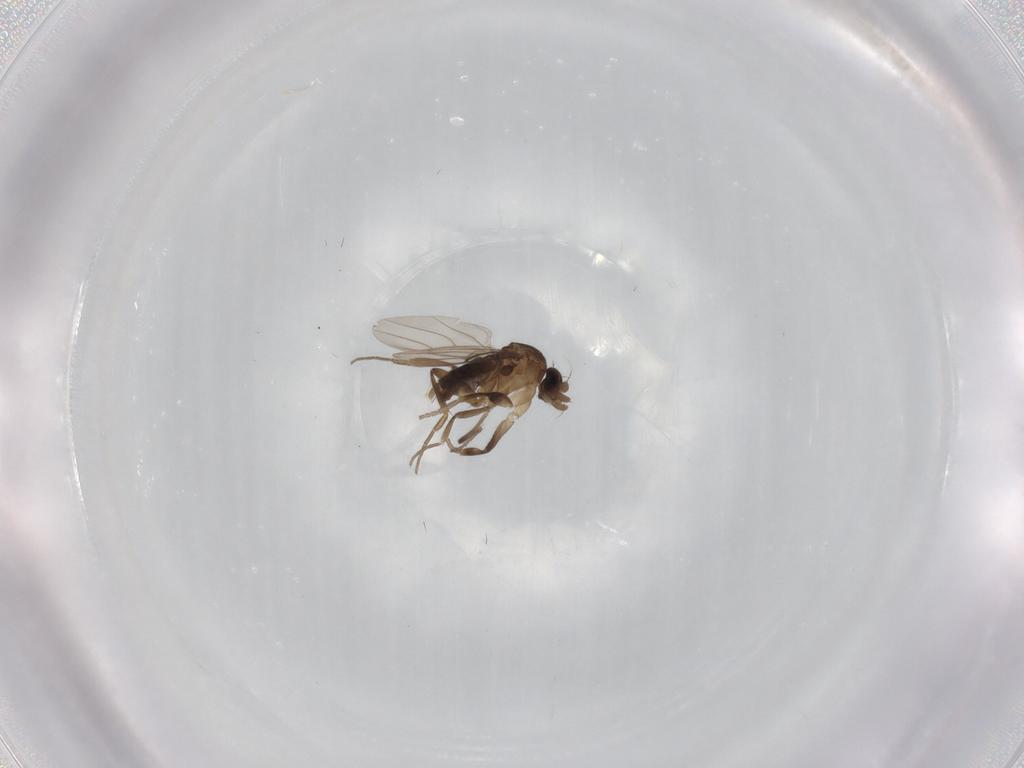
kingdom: Animalia
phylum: Arthropoda
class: Insecta
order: Diptera
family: Phoridae
